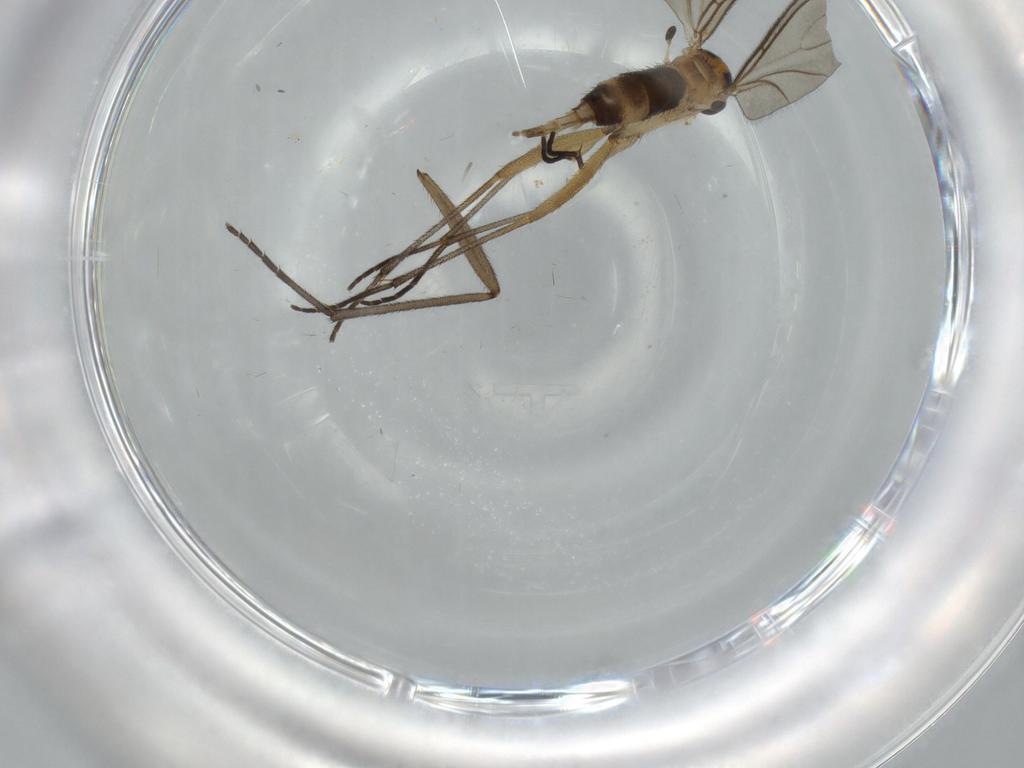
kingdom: Animalia
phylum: Arthropoda
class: Insecta
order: Diptera
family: Sciaridae
